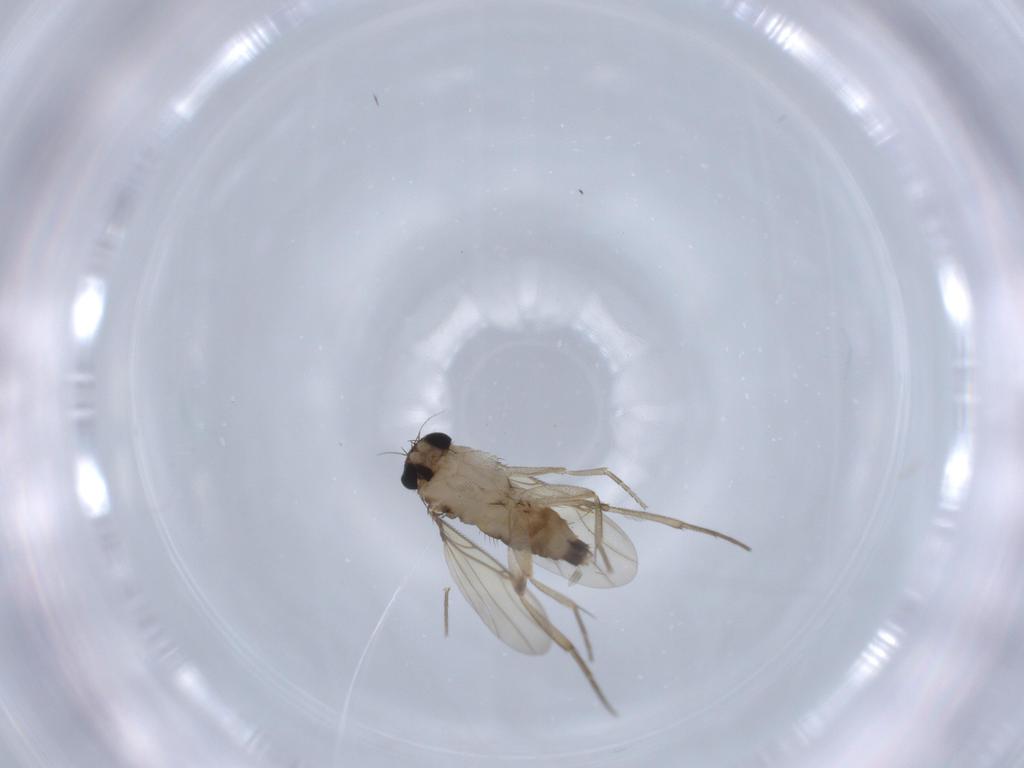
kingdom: Animalia
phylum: Arthropoda
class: Insecta
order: Diptera
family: Phoridae
